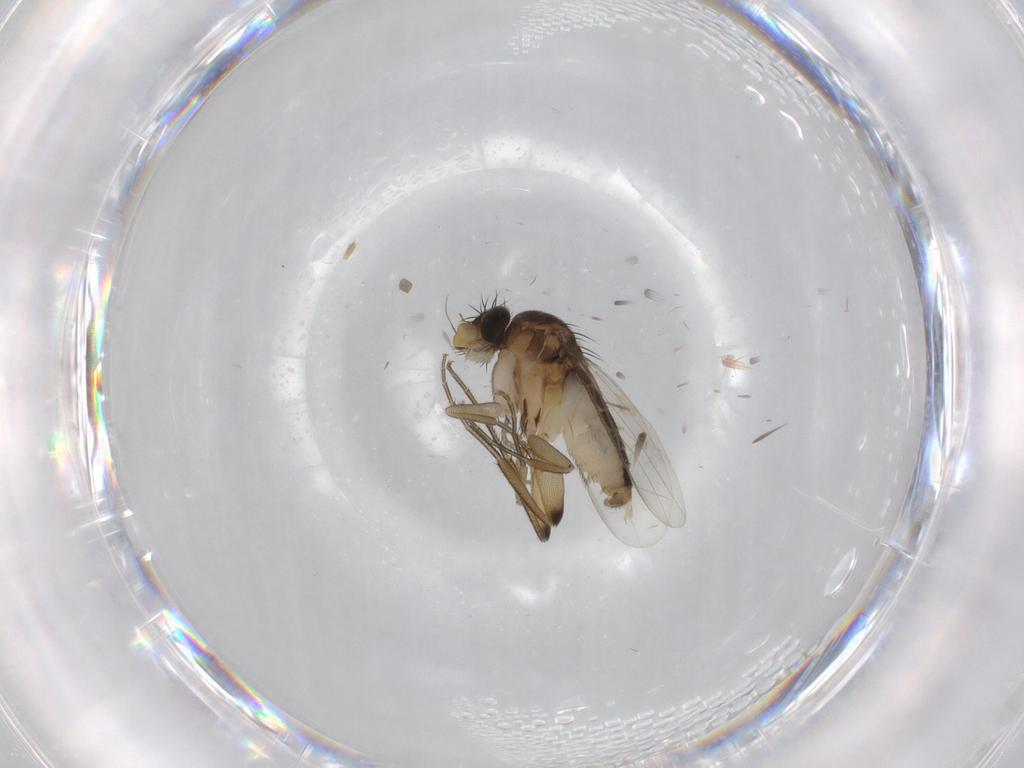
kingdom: Animalia
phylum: Arthropoda
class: Insecta
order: Diptera
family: Phoridae
